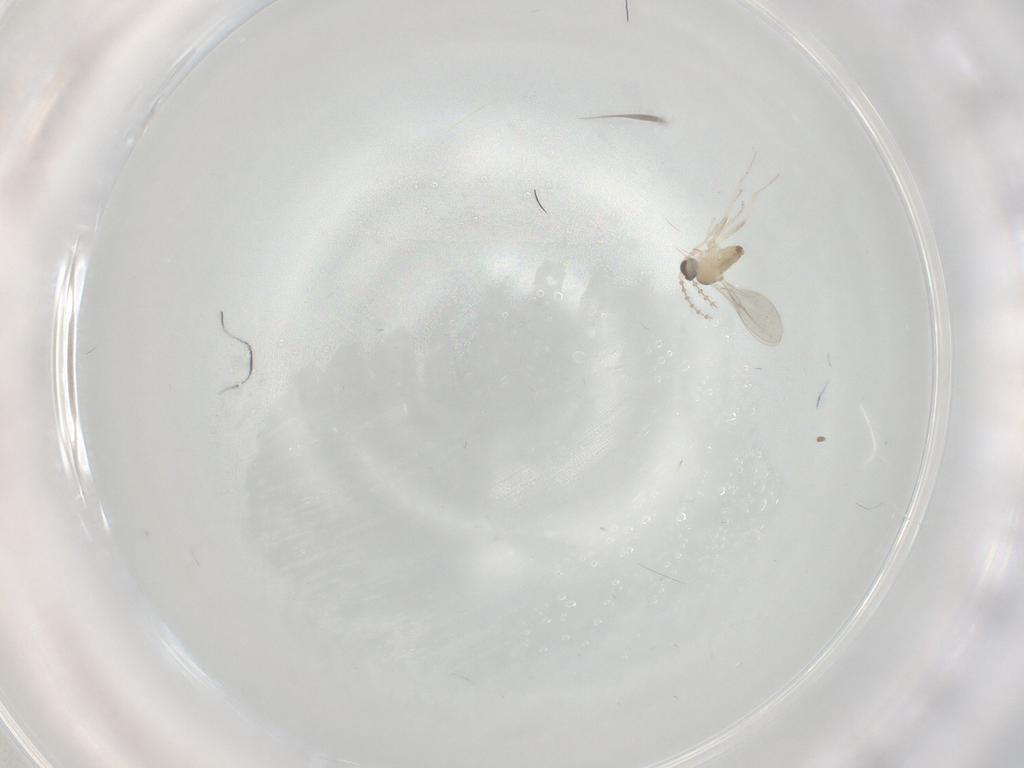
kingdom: Animalia
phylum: Arthropoda
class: Insecta
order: Diptera
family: Cecidomyiidae
